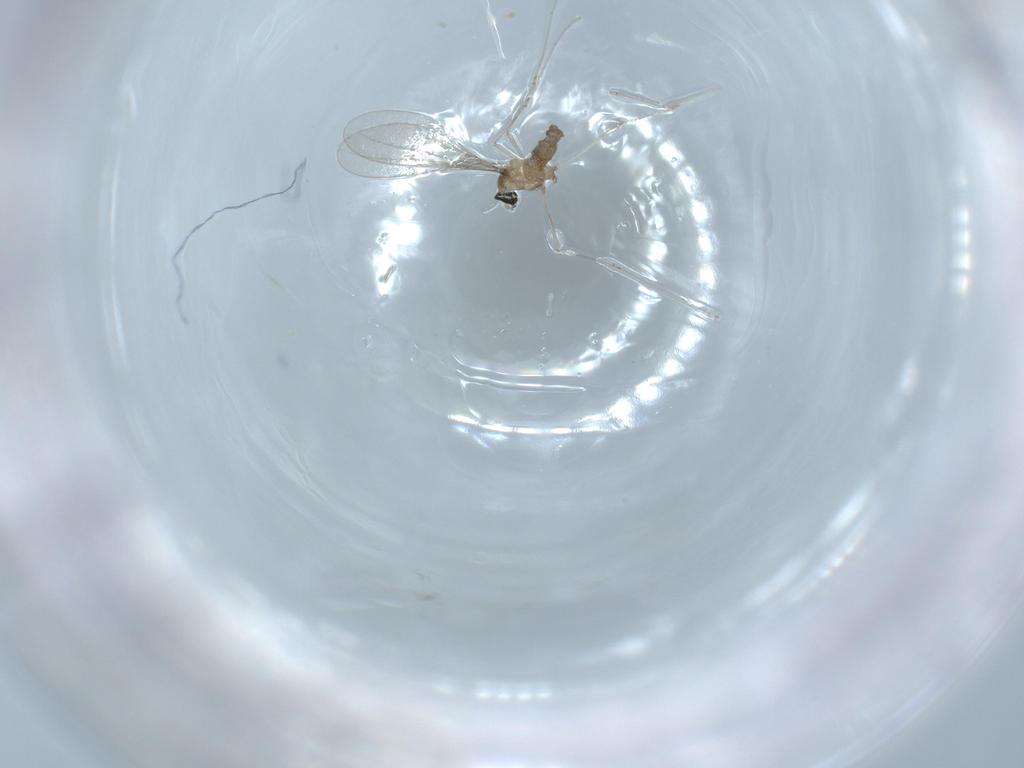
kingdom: Animalia
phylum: Arthropoda
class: Insecta
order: Diptera
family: Cecidomyiidae
